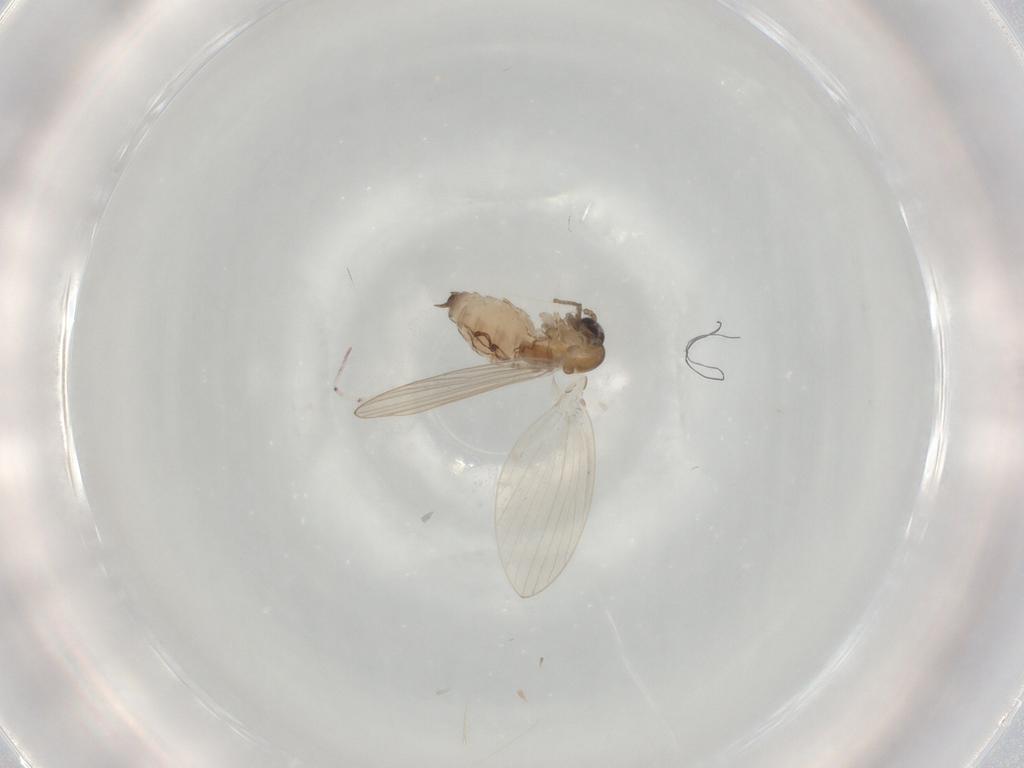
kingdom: Animalia
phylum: Arthropoda
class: Insecta
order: Diptera
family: Psychodidae
